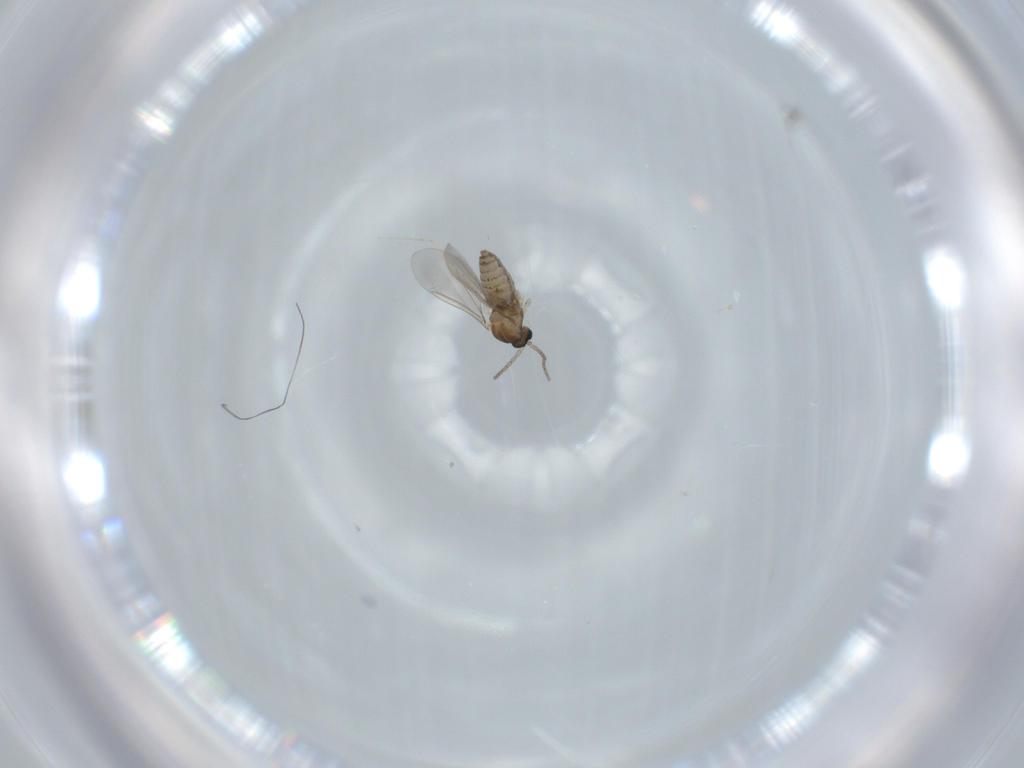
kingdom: Animalia
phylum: Arthropoda
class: Insecta
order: Diptera
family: Cecidomyiidae
